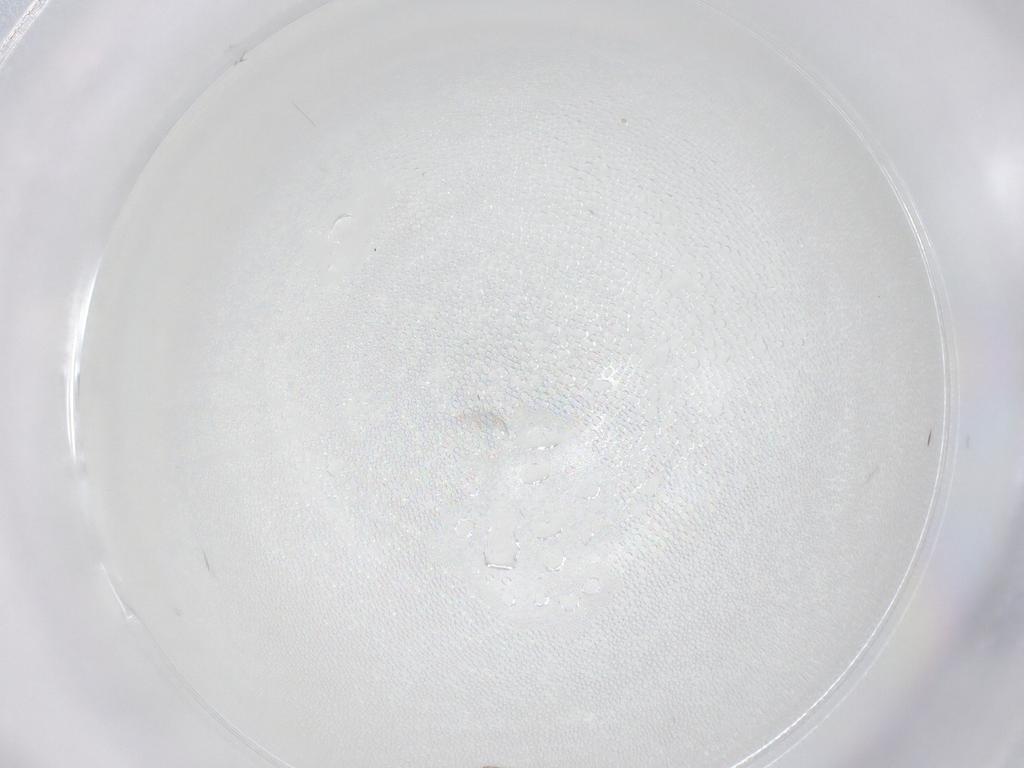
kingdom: Animalia
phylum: Arthropoda
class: Insecta
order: Diptera
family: Cecidomyiidae
